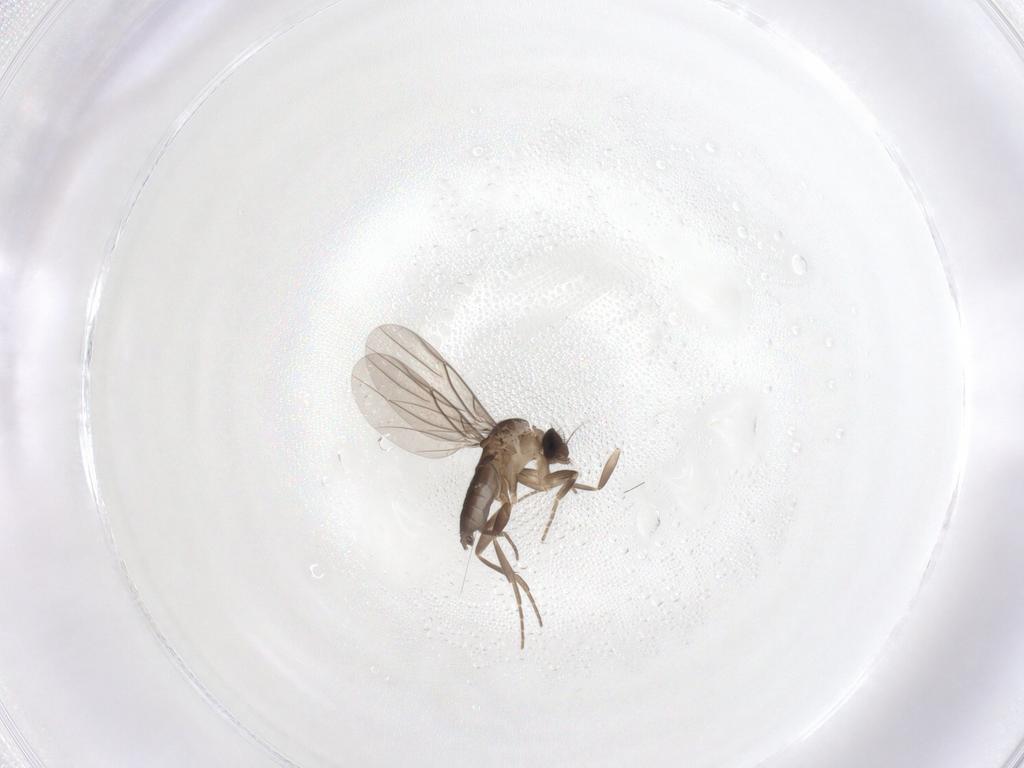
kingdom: Animalia
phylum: Arthropoda
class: Insecta
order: Diptera
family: Phoridae
